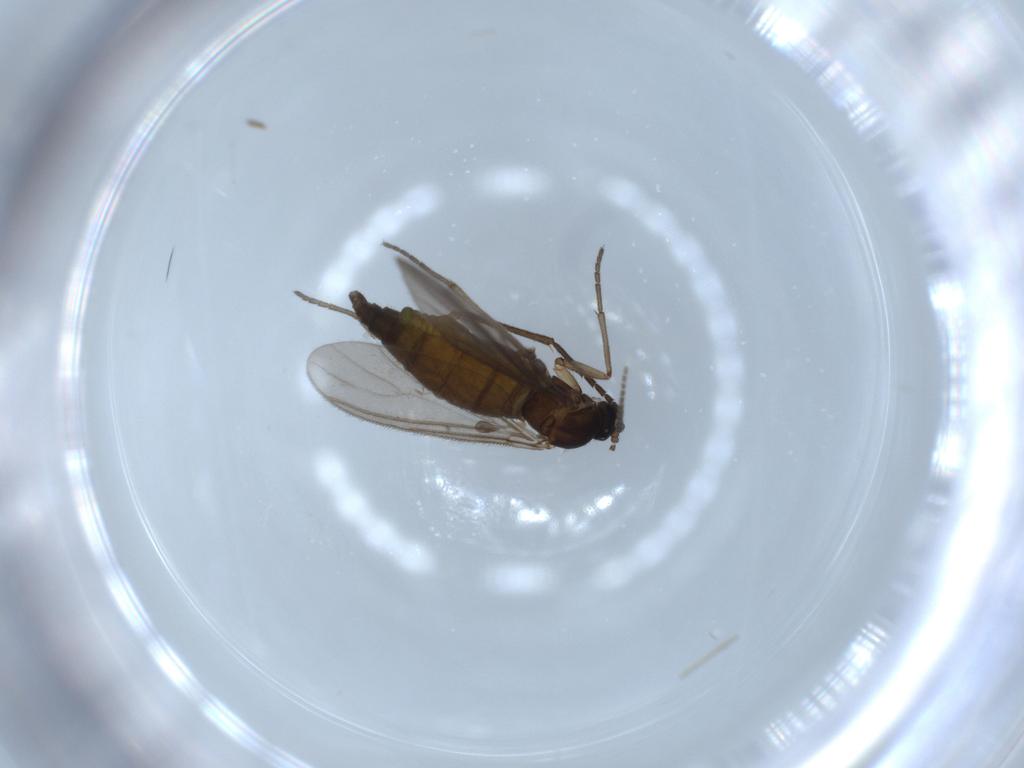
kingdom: Animalia
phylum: Arthropoda
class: Insecta
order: Diptera
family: Sciaridae
